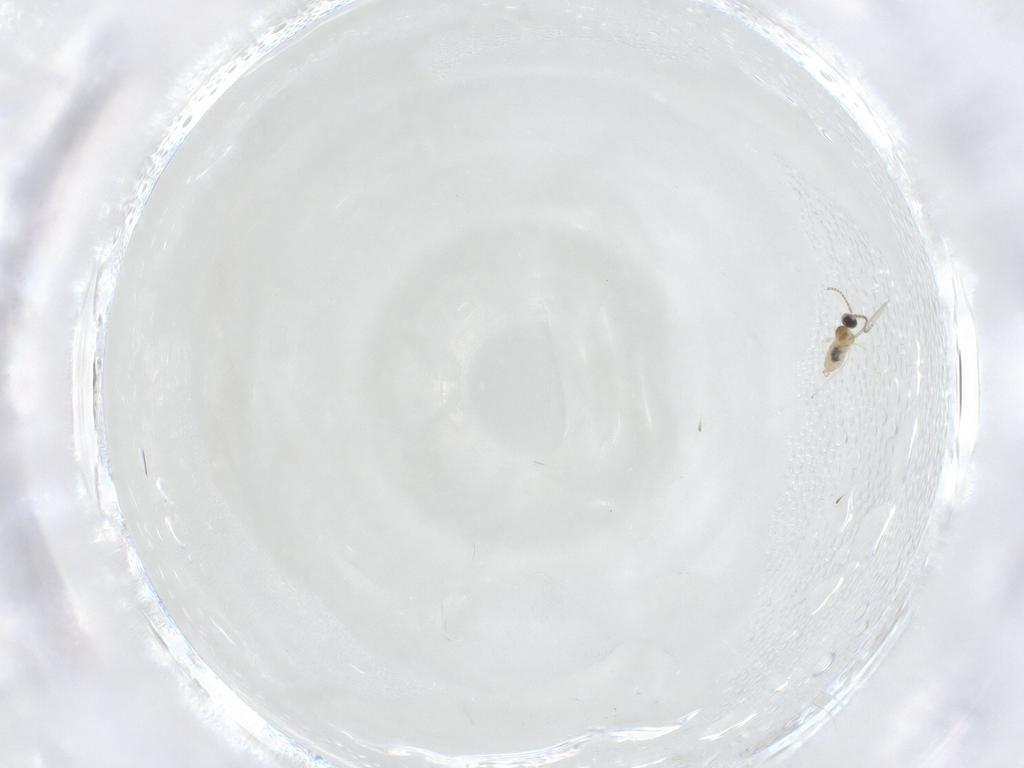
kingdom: Animalia
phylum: Arthropoda
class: Insecta
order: Diptera
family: Cecidomyiidae
